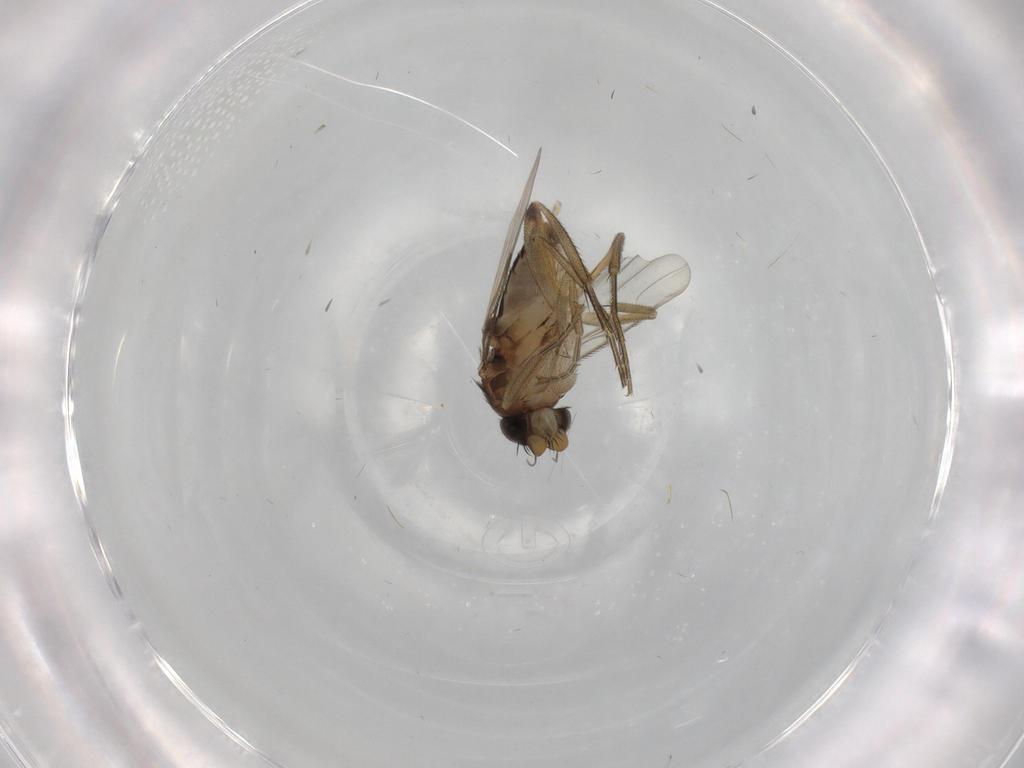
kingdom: Animalia
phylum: Arthropoda
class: Insecta
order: Diptera
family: Phoridae
